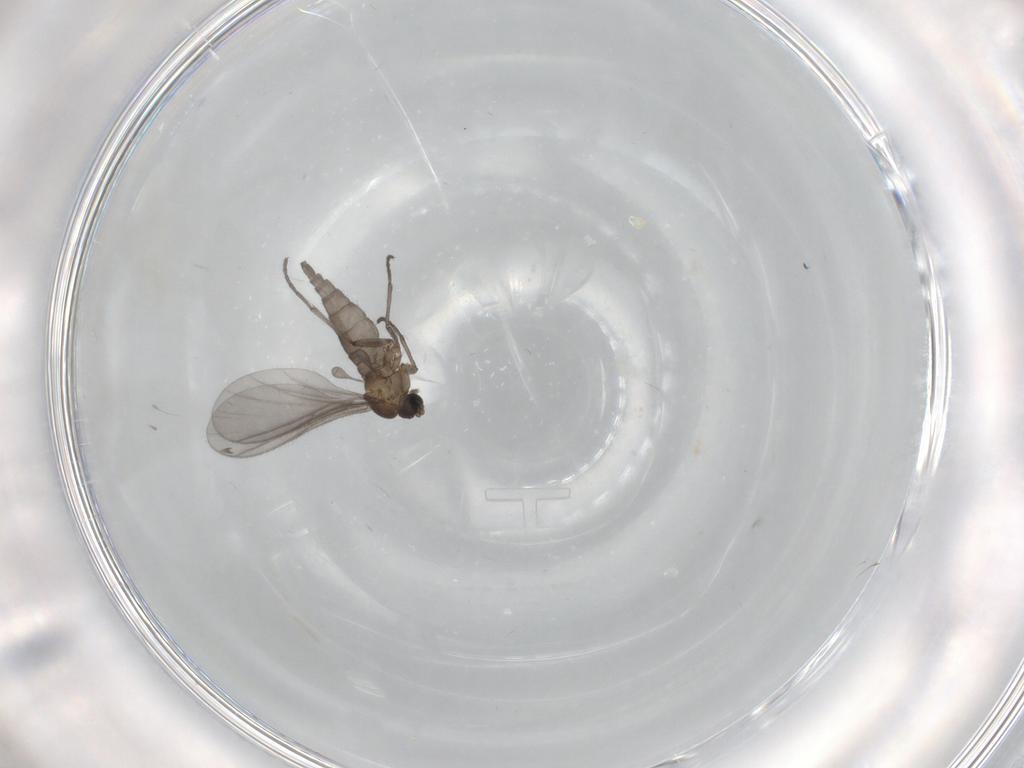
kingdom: Animalia
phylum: Arthropoda
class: Insecta
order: Diptera
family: Sciaridae
